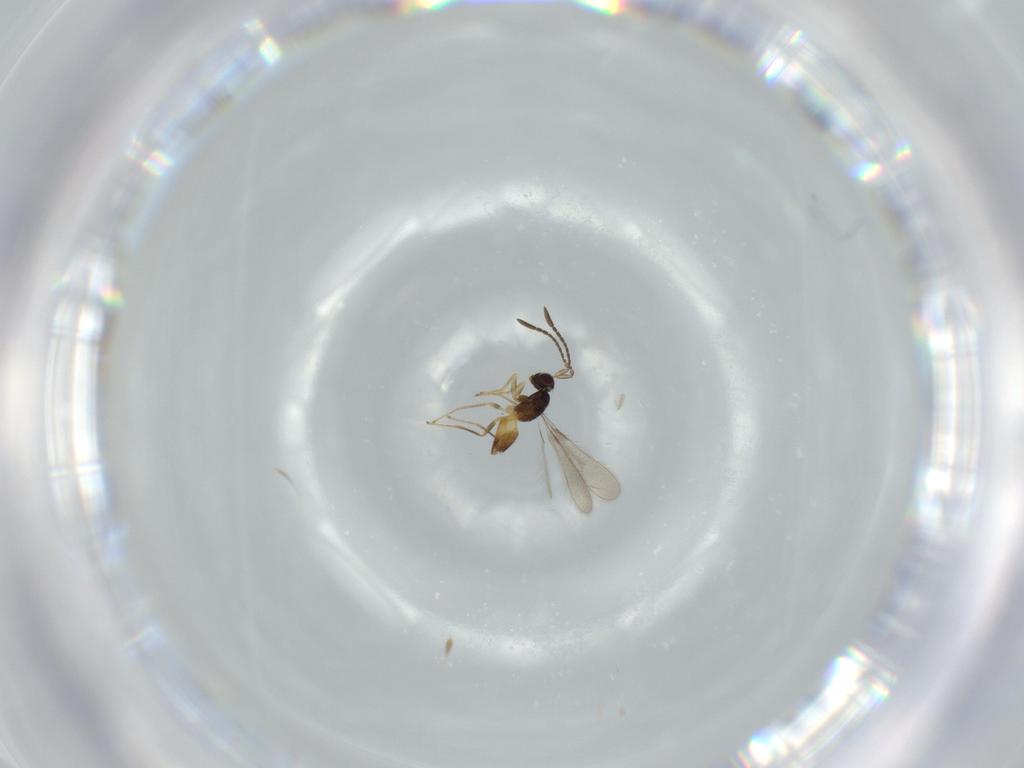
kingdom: Animalia
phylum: Arthropoda
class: Insecta
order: Hymenoptera
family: Mymaridae
